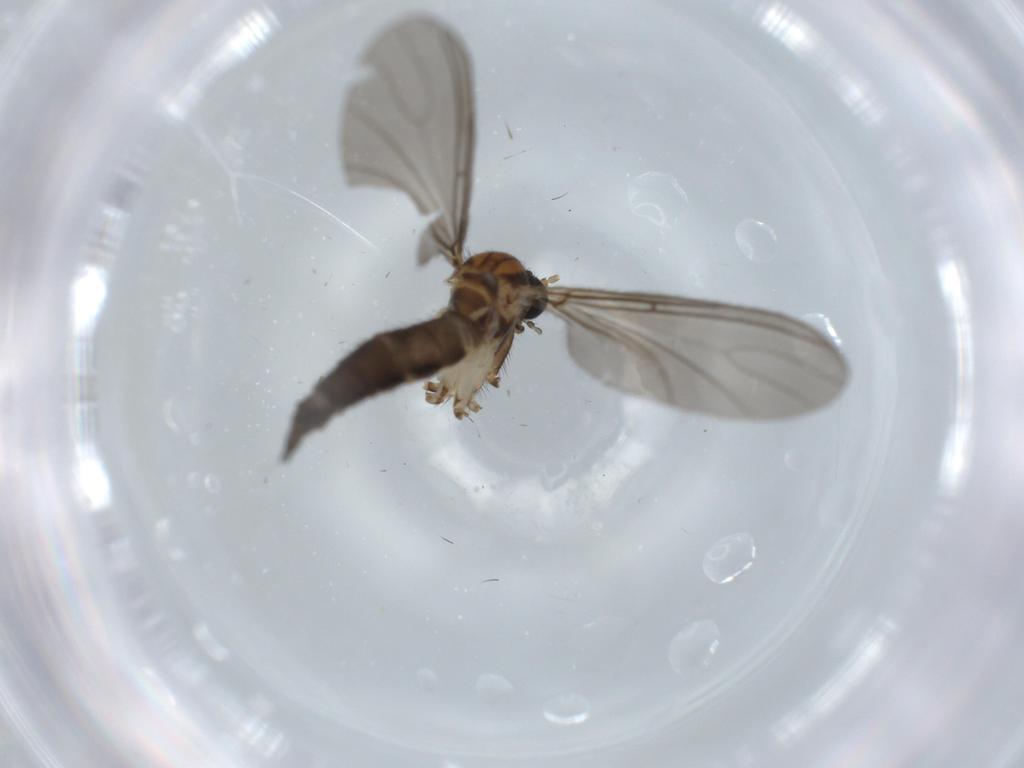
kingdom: Animalia
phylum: Arthropoda
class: Insecta
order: Diptera
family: Sciaridae
